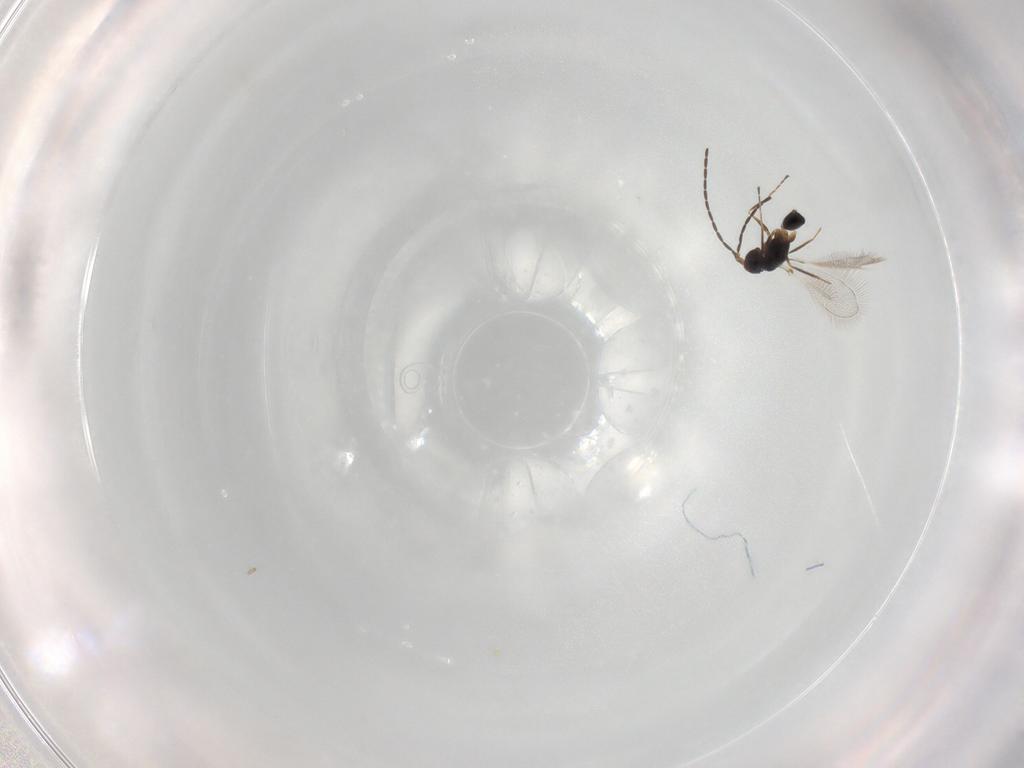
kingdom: Animalia
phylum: Arthropoda
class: Insecta
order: Hymenoptera
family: Mymaridae
